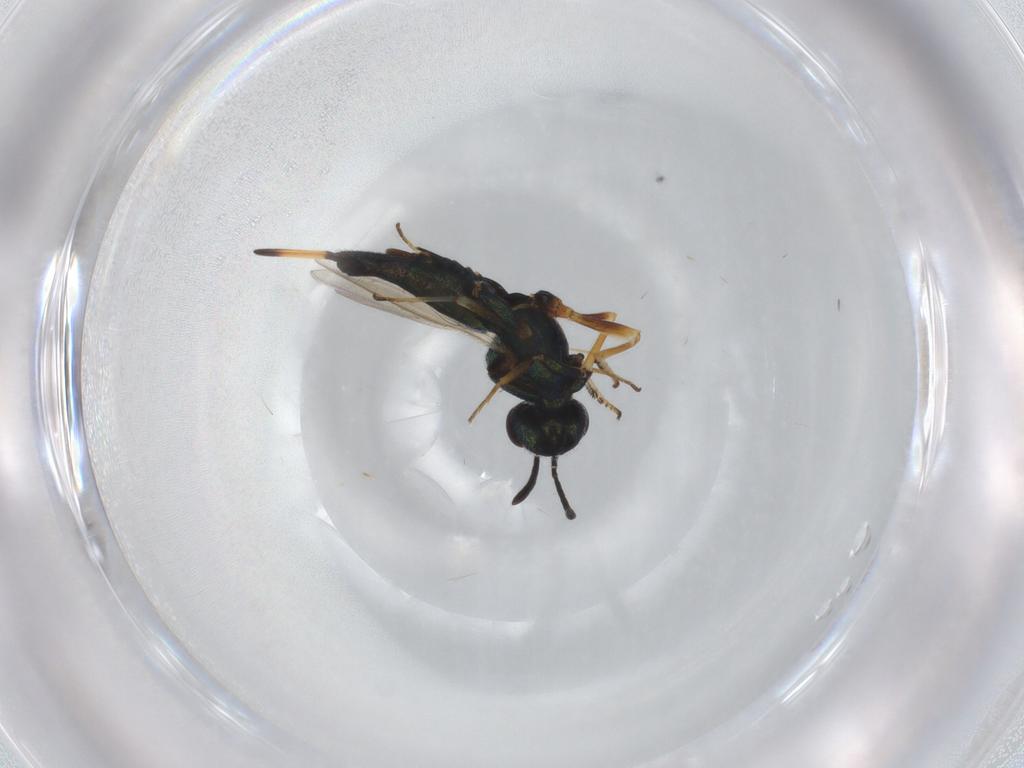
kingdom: Animalia
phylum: Arthropoda
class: Insecta
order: Hymenoptera
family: Eupelmidae
